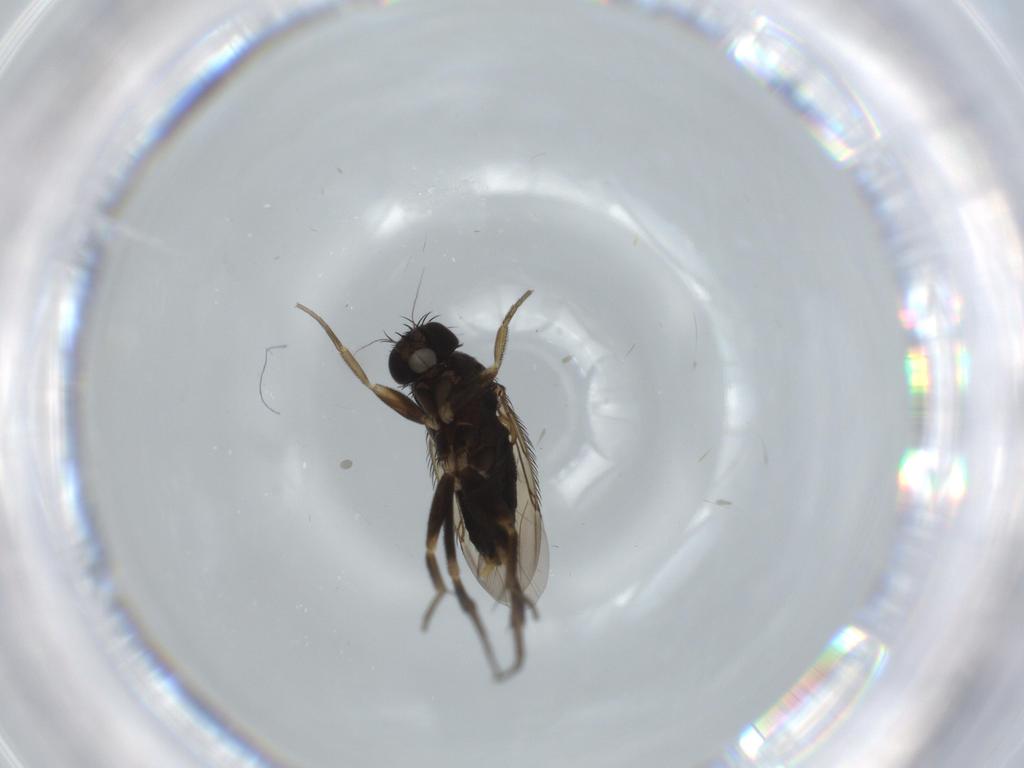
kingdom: Animalia
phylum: Arthropoda
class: Insecta
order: Diptera
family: Phoridae
